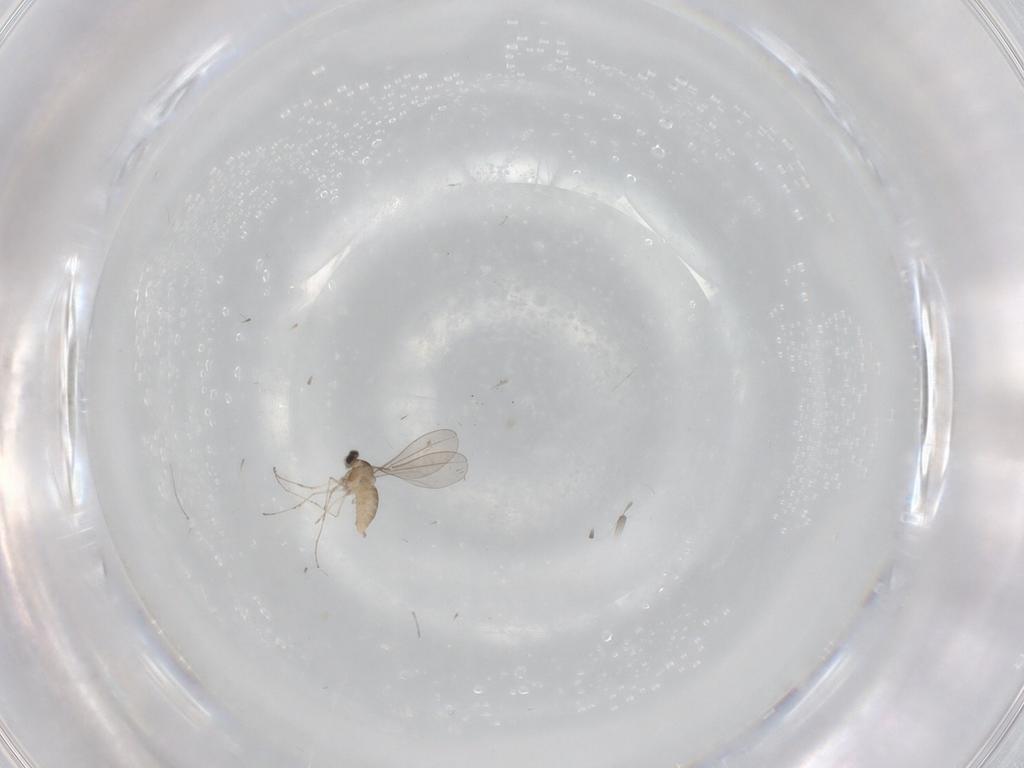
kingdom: Animalia
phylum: Arthropoda
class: Insecta
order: Diptera
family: Cecidomyiidae
